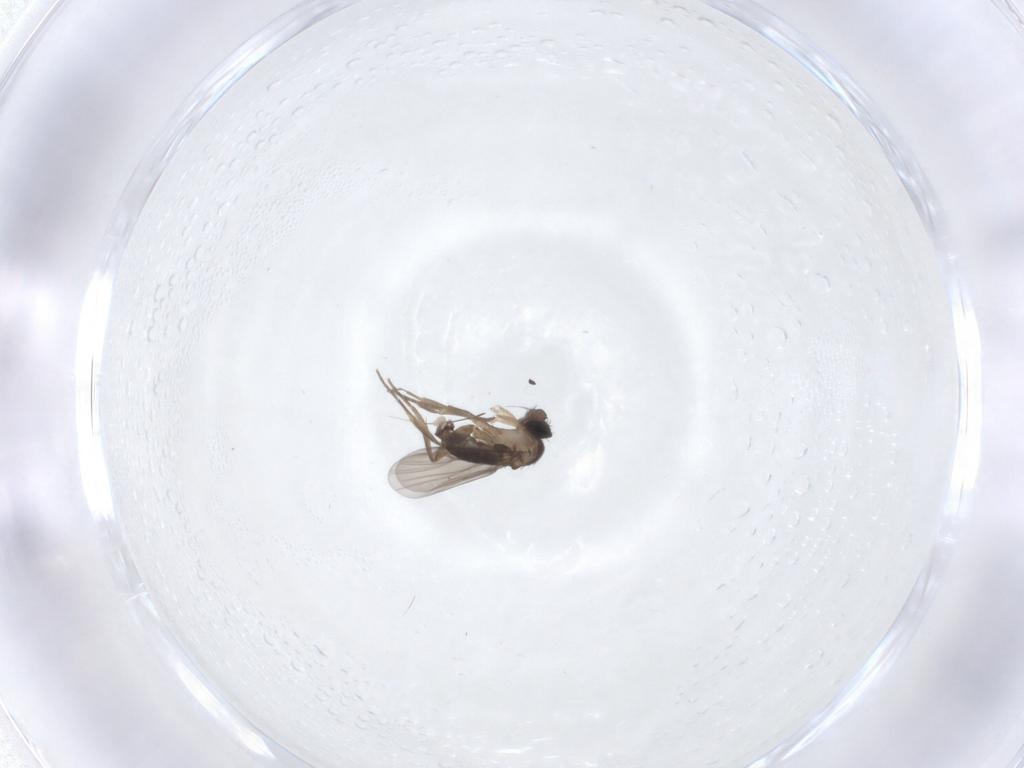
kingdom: Animalia
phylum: Arthropoda
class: Insecta
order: Diptera
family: Phoridae
